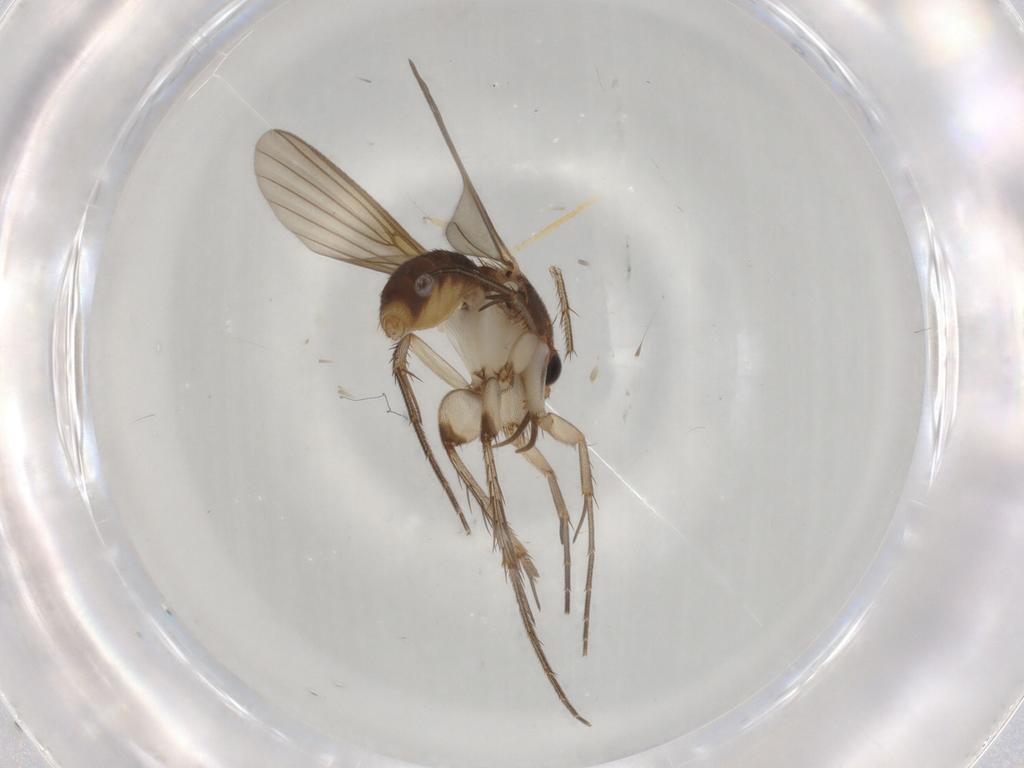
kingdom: Animalia
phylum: Arthropoda
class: Insecta
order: Diptera
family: Cecidomyiidae
